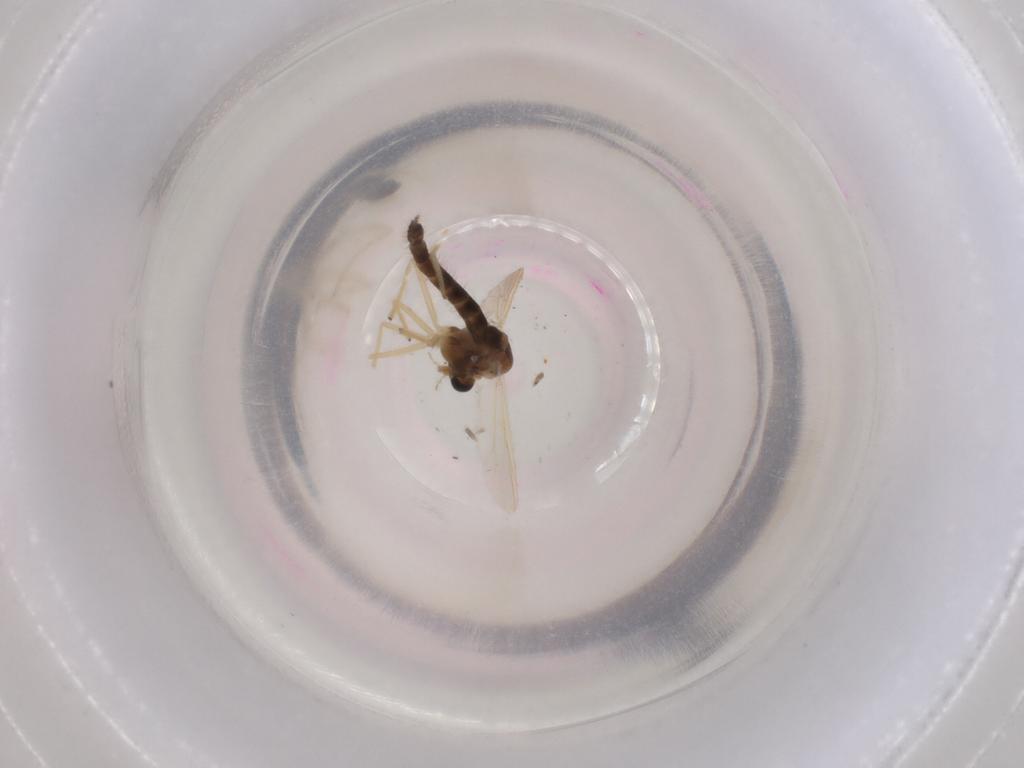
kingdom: Animalia
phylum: Arthropoda
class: Insecta
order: Diptera
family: Chironomidae
